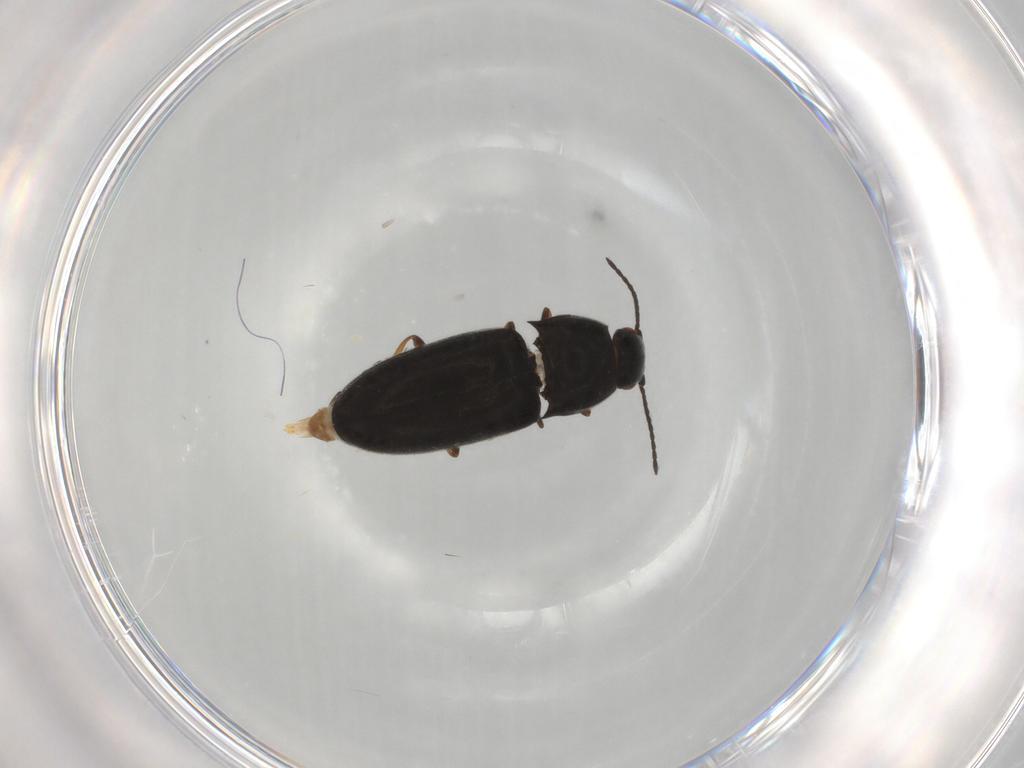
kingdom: Animalia
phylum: Arthropoda
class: Insecta
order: Coleoptera
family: Elateridae
